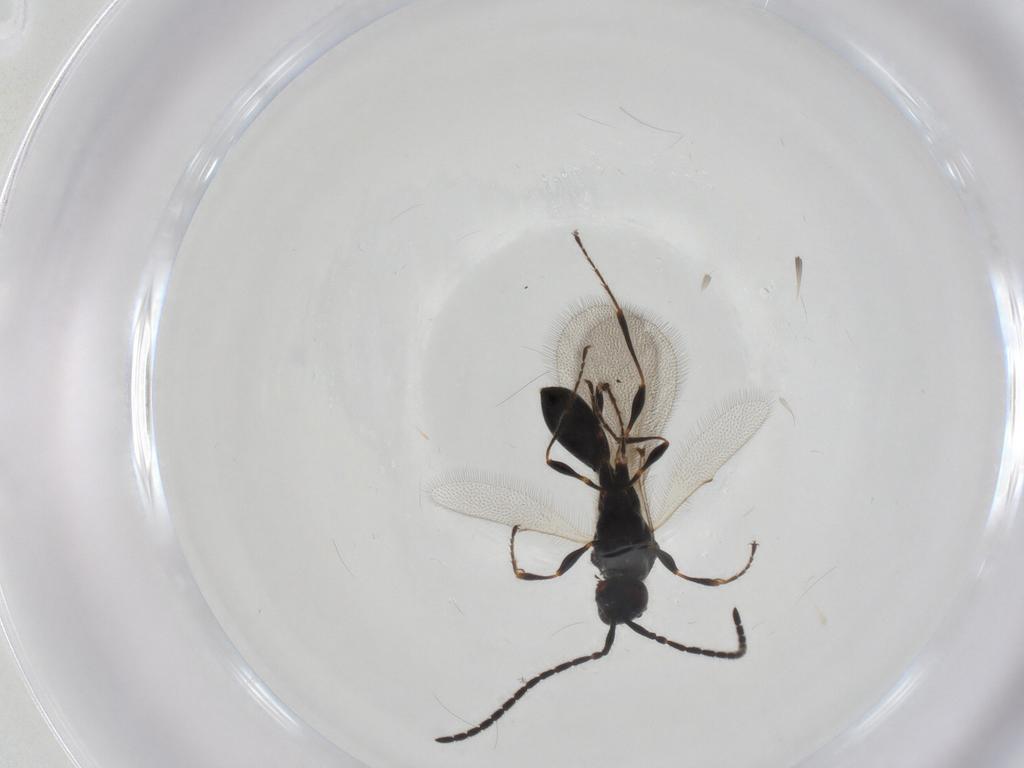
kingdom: Animalia
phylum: Arthropoda
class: Insecta
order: Hymenoptera
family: Diapriidae
